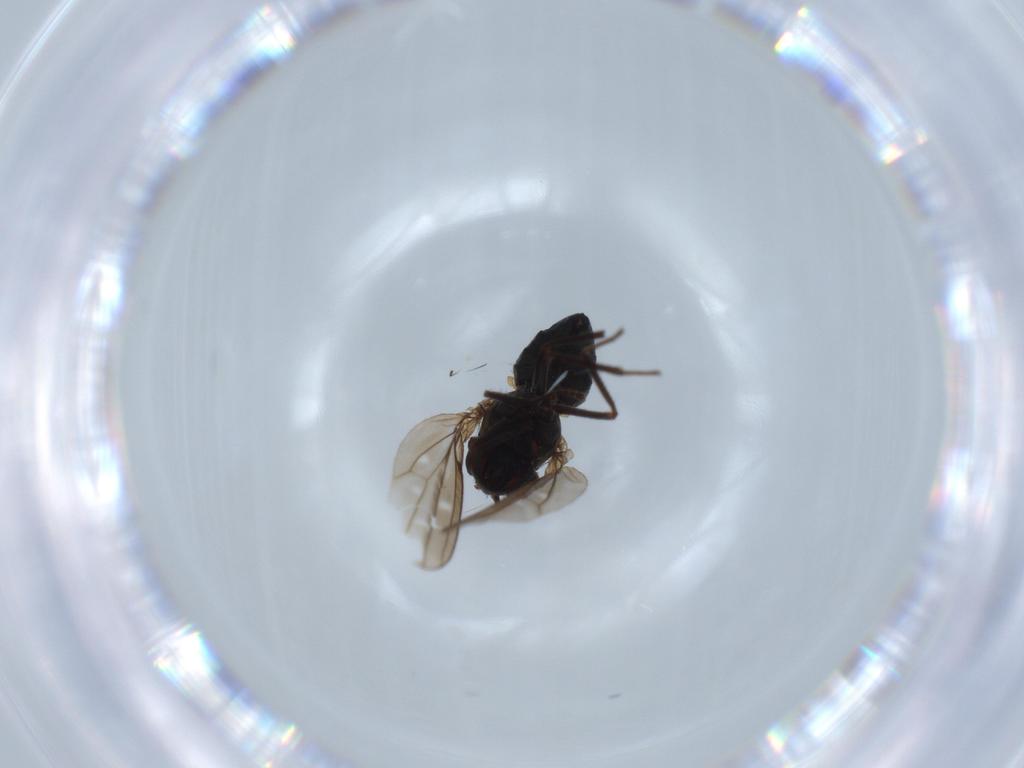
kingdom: Animalia
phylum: Arthropoda
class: Insecta
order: Diptera
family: Ephydridae
